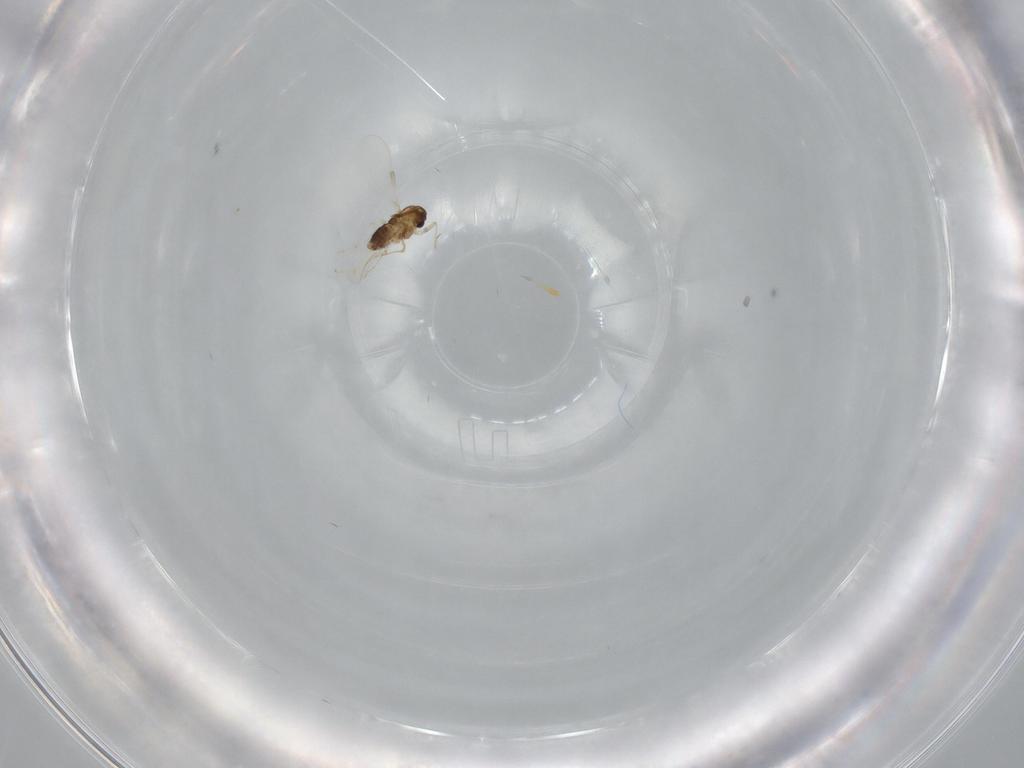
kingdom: Animalia
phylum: Arthropoda
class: Insecta
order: Diptera
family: Chironomidae
